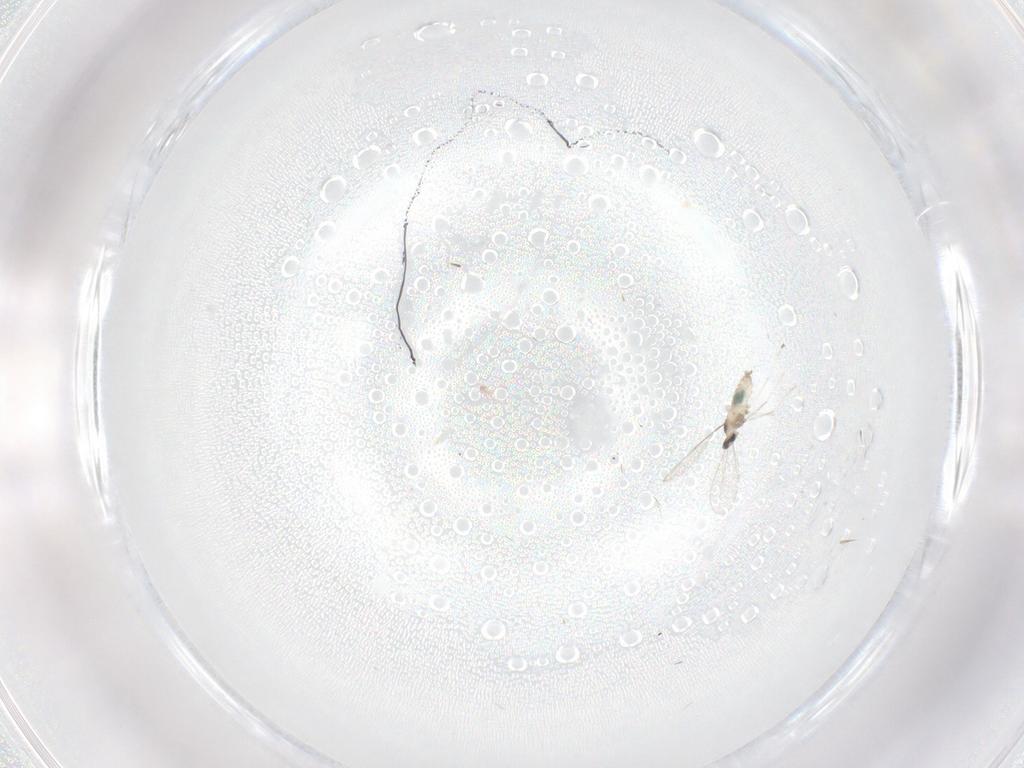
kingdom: Animalia
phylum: Arthropoda
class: Insecta
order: Diptera
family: Cecidomyiidae
